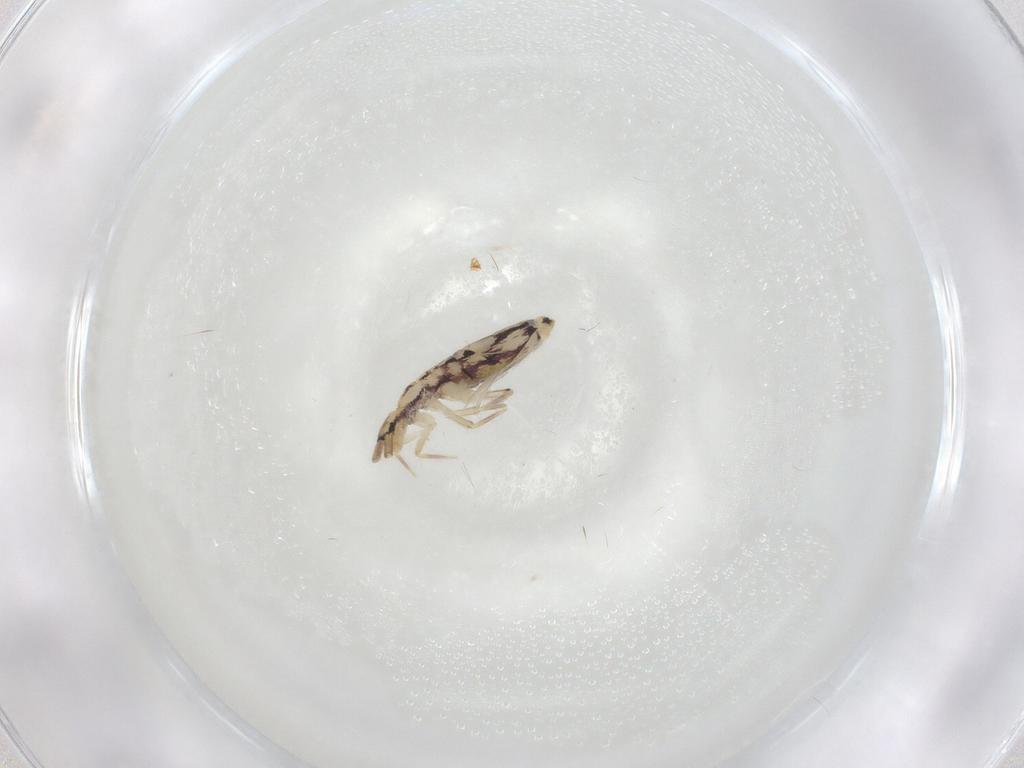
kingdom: Animalia
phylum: Arthropoda
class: Collembola
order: Entomobryomorpha
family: Entomobryidae
